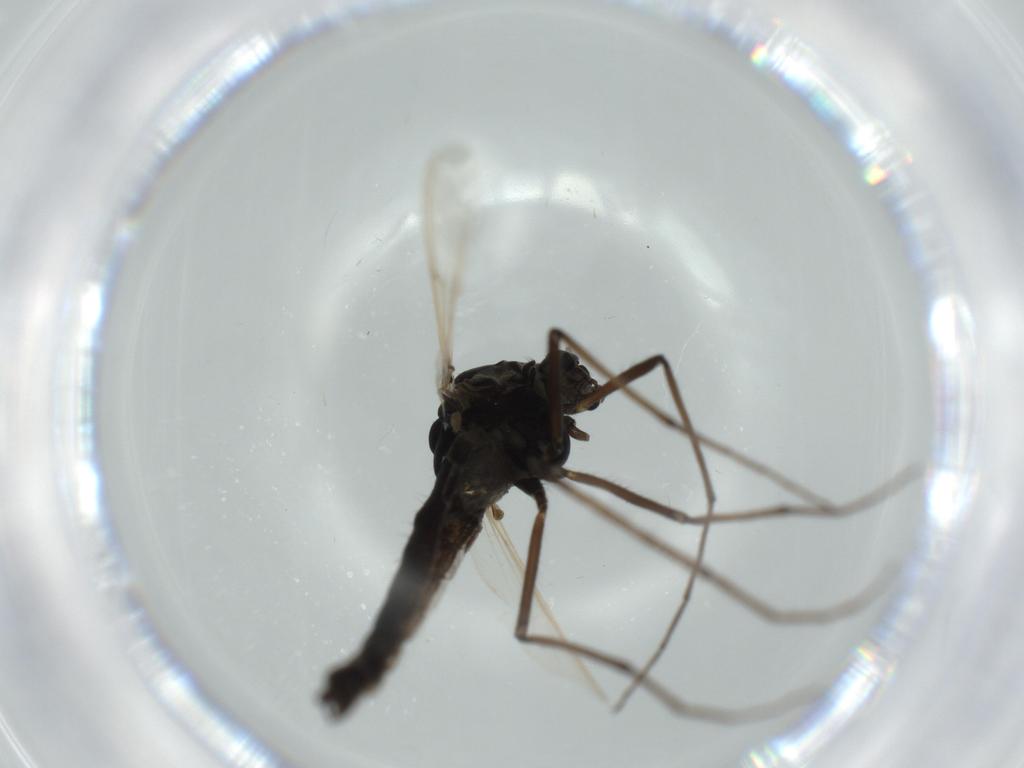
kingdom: Animalia
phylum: Arthropoda
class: Insecta
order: Diptera
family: Chironomidae
